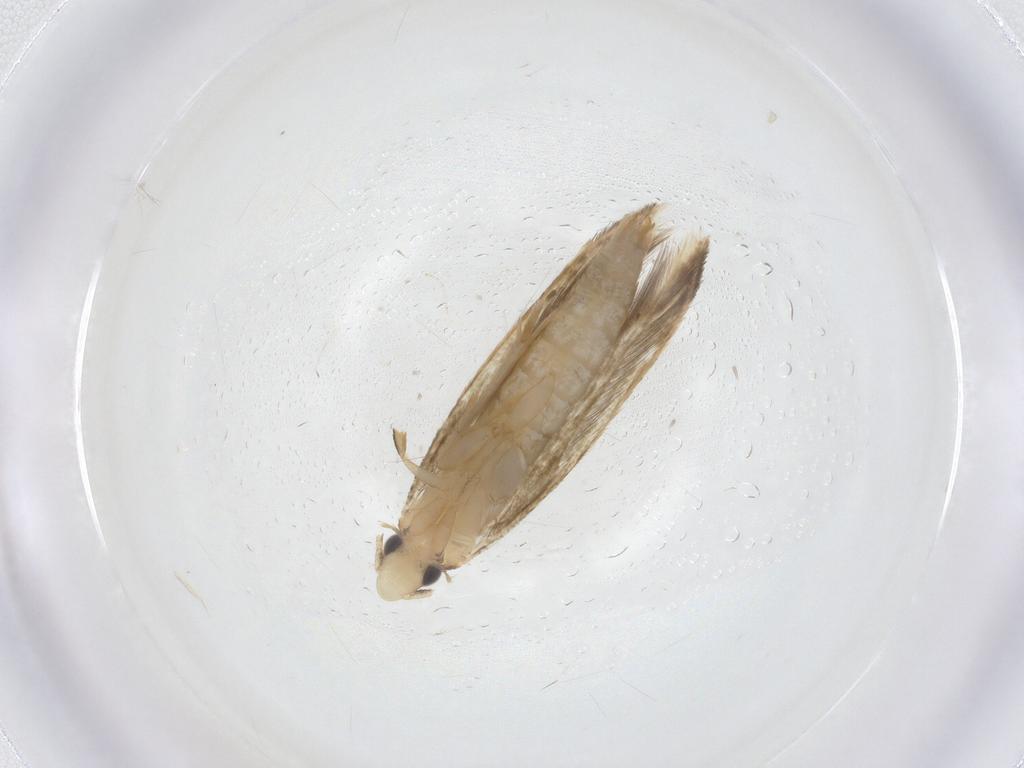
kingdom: Animalia
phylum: Arthropoda
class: Insecta
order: Lepidoptera
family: Tineidae
